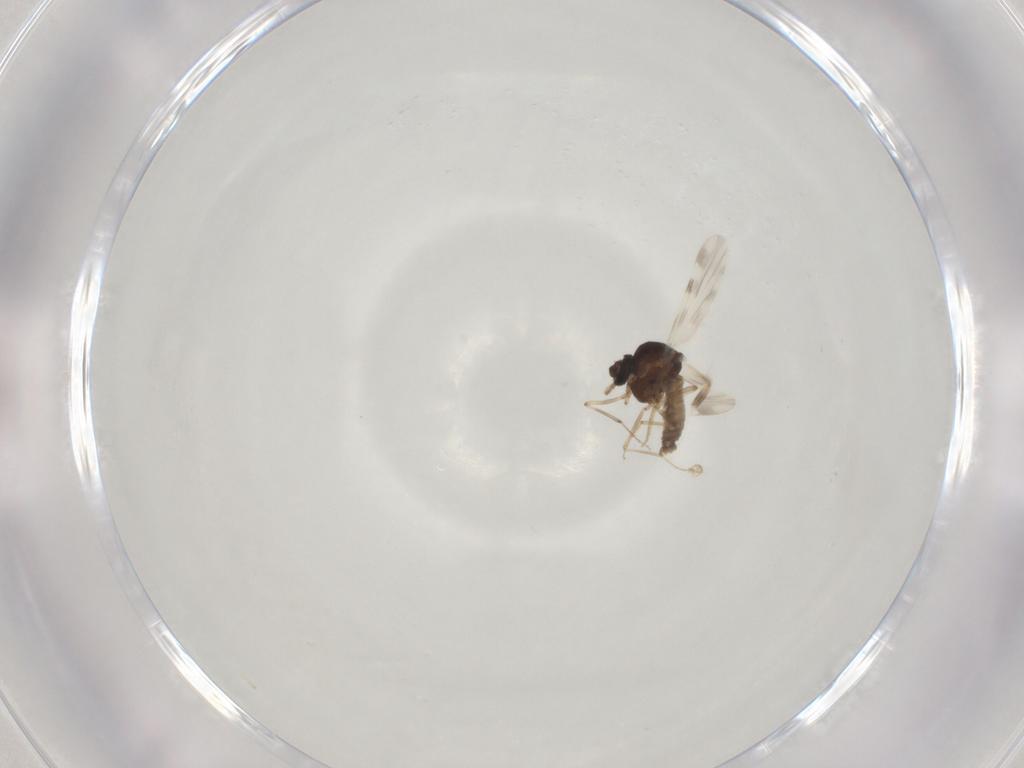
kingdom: Animalia
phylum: Arthropoda
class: Insecta
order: Diptera
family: Ceratopogonidae
